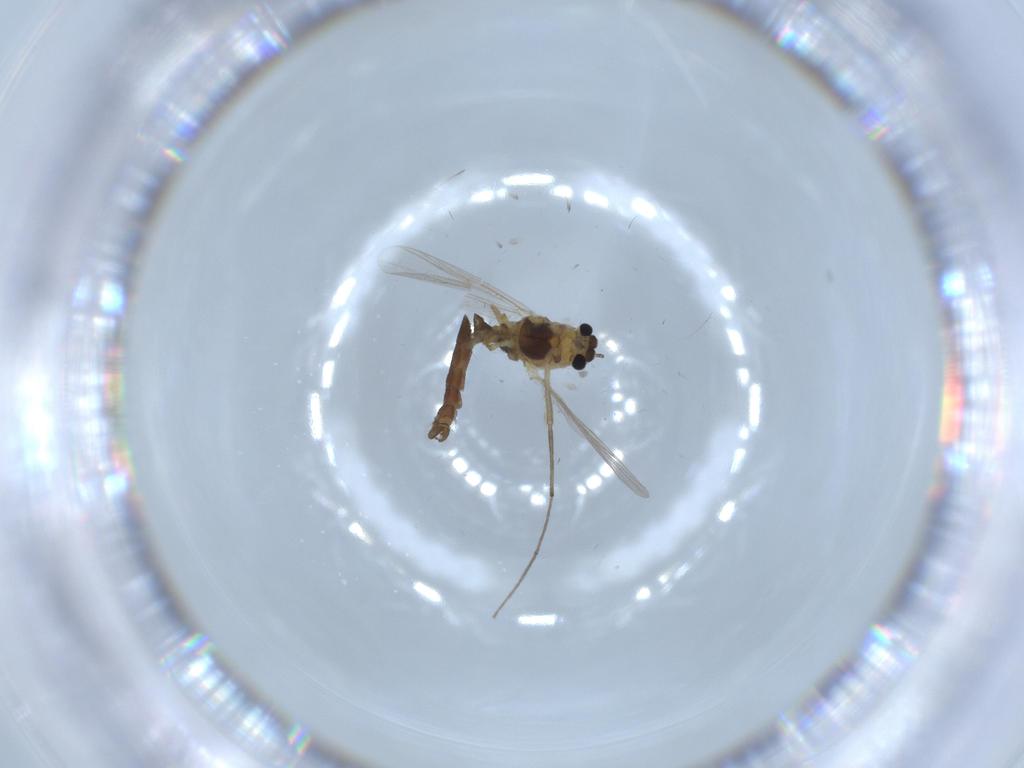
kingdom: Animalia
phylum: Arthropoda
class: Insecta
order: Diptera
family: Chironomidae
